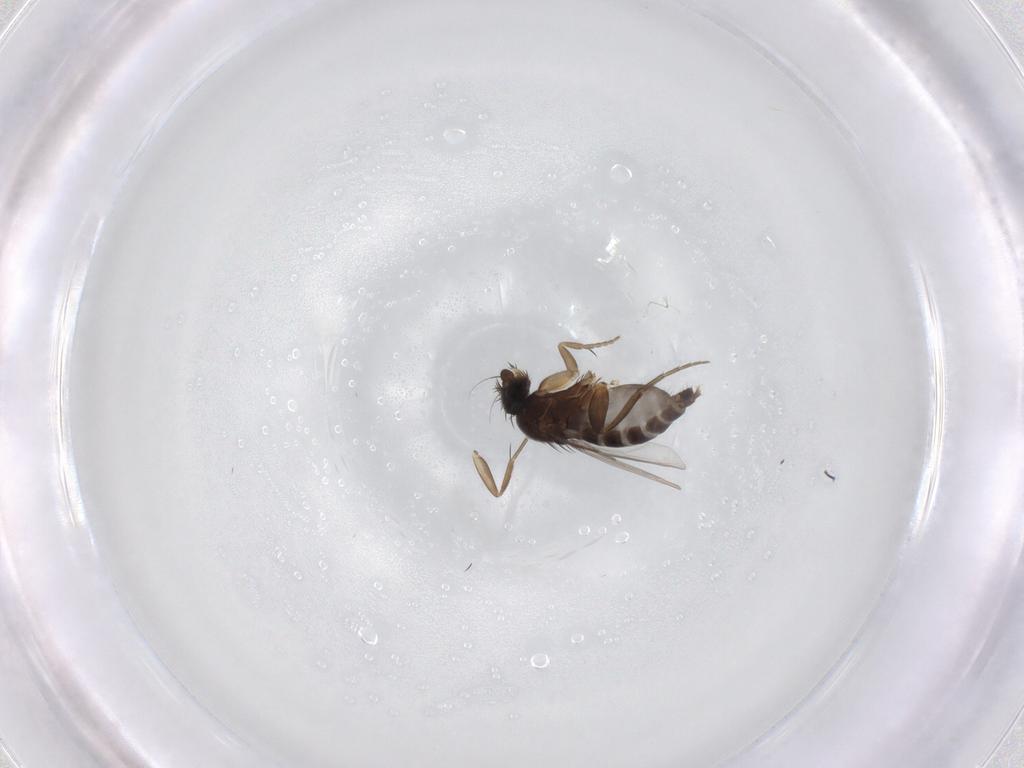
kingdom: Animalia
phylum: Arthropoda
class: Insecta
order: Diptera
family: Phoridae
